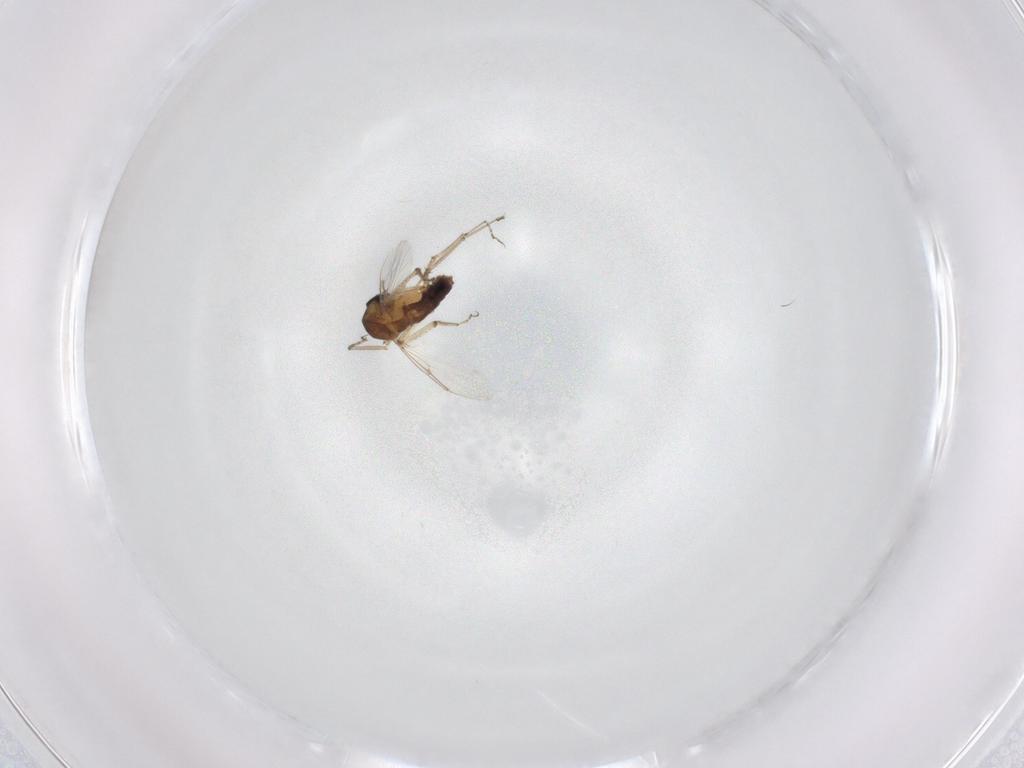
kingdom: Animalia
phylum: Arthropoda
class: Insecta
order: Diptera
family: Ceratopogonidae
